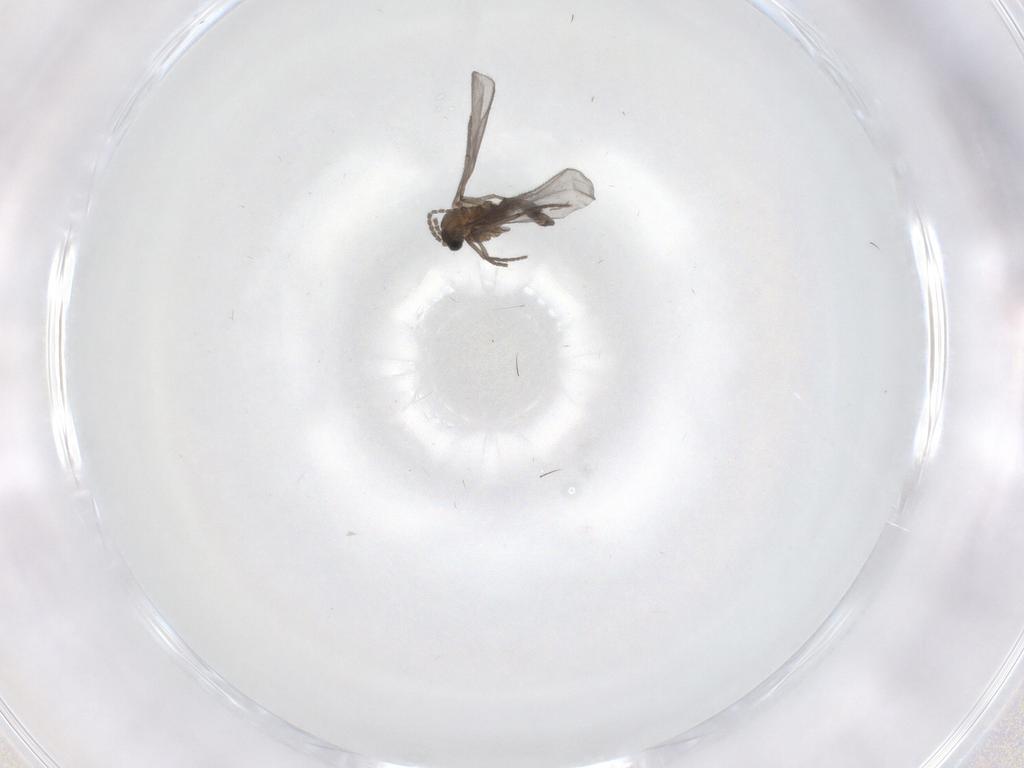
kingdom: Animalia
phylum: Arthropoda
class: Insecta
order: Diptera
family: Sciaridae
